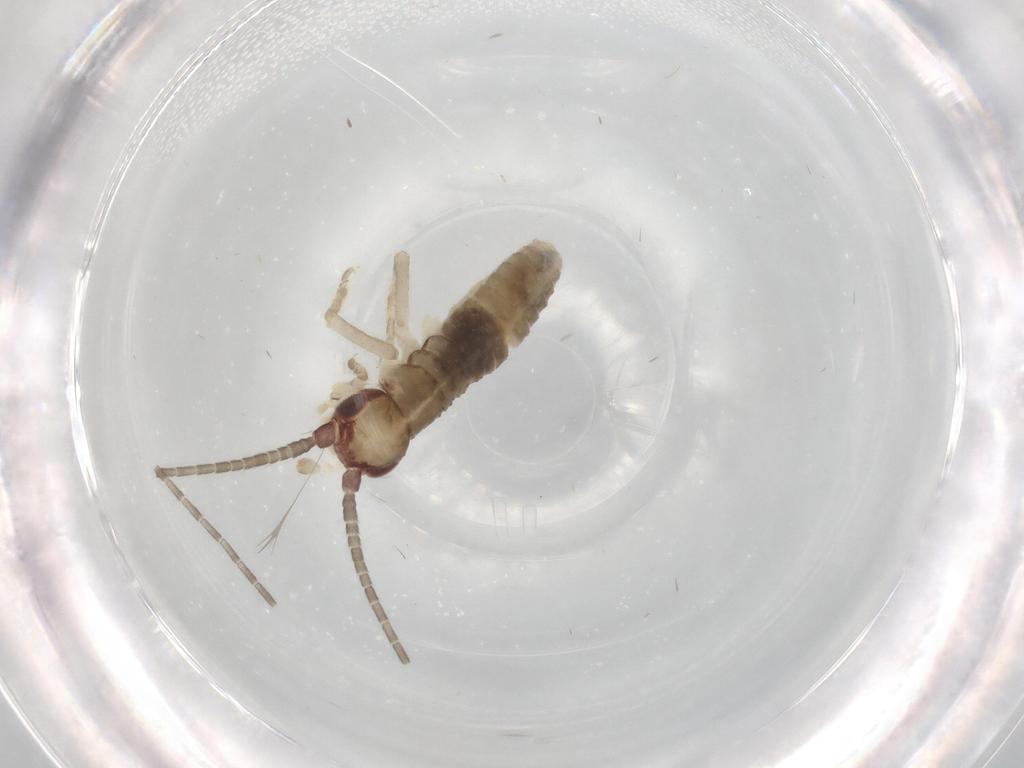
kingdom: Animalia
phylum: Arthropoda
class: Insecta
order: Orthoptera
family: Gryllidae
